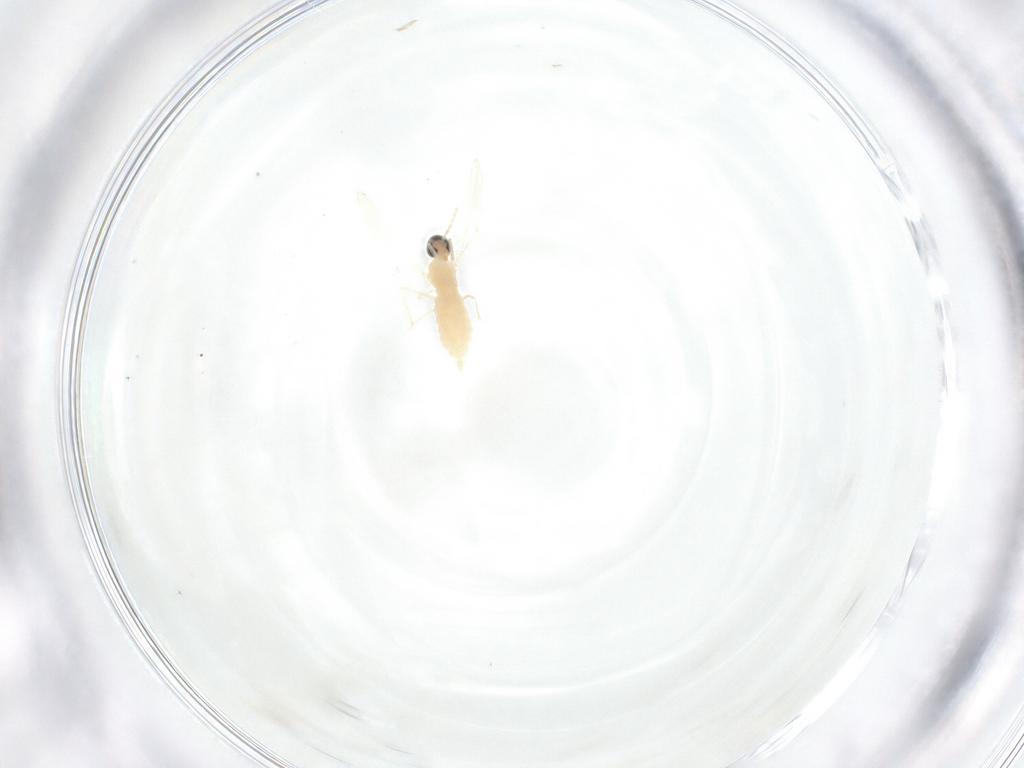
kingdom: Animalia
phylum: Arthropoda
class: Insecta
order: Diptera
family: Cecidomyiidae
